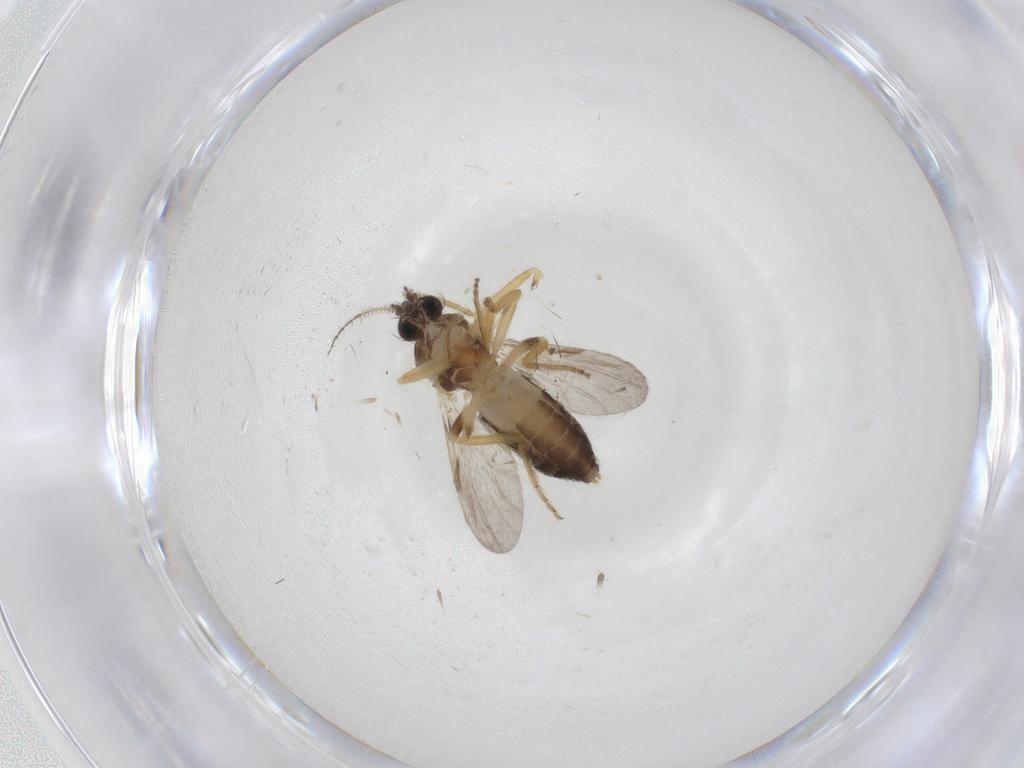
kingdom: Animalia
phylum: Arthropoda
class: Insecta
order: Diptera
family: Ceratopogonidae
